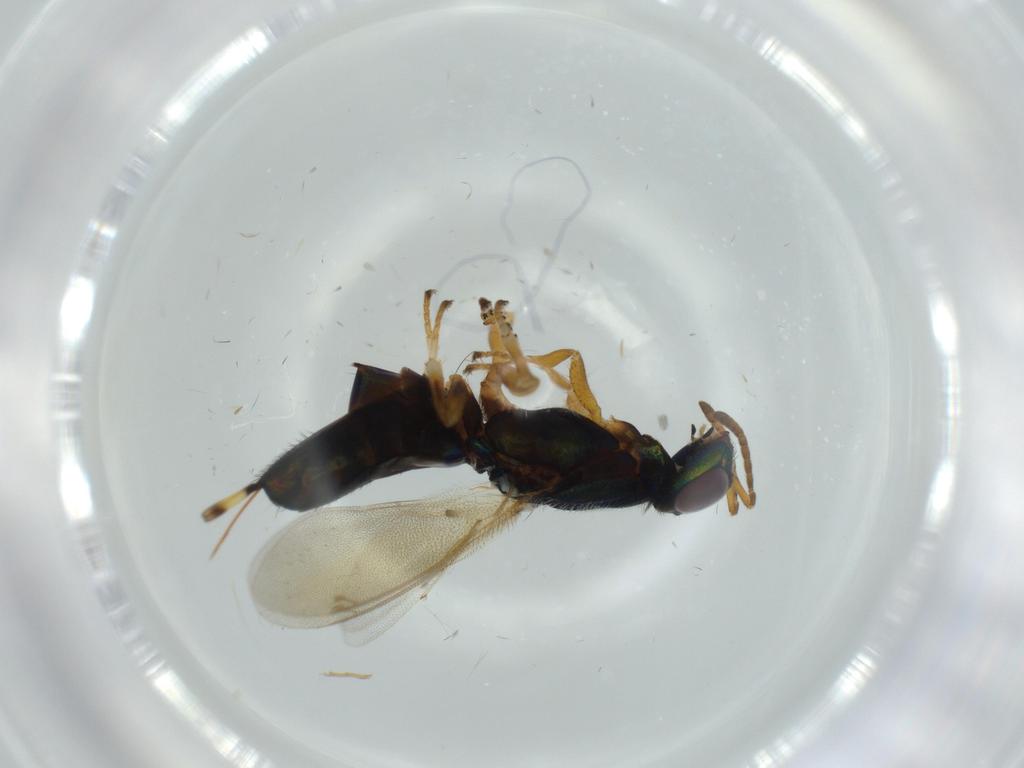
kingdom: Animalia
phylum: Arthropoda
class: Insecta
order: Hymenoptera
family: Eupelmidae
